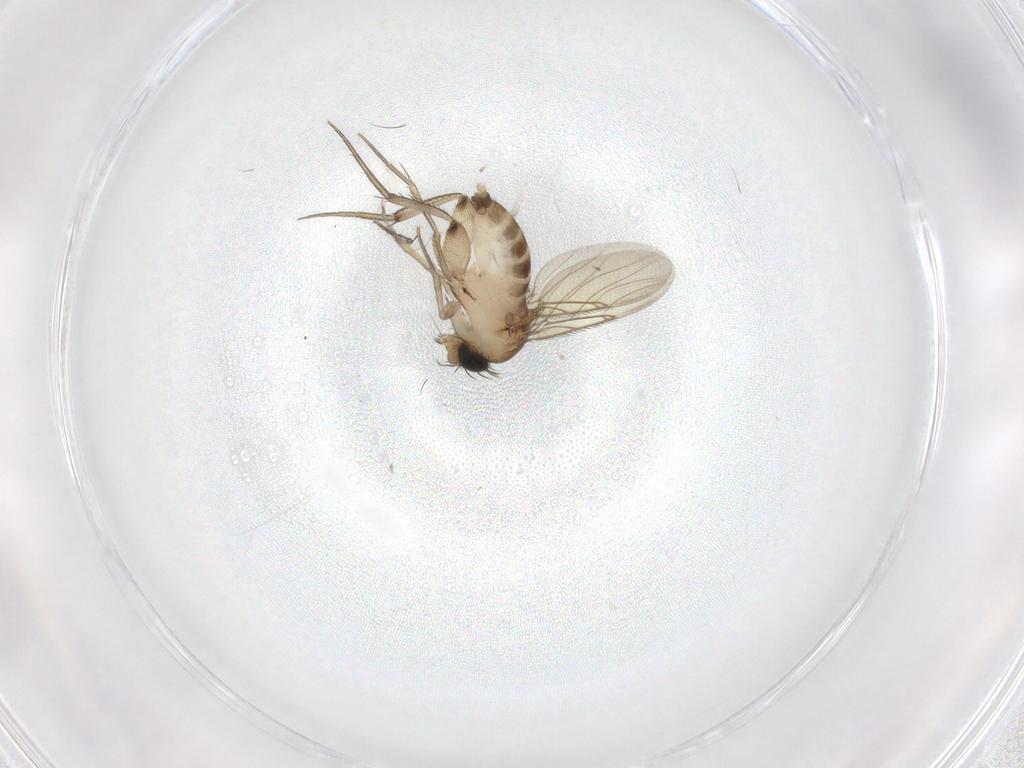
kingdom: Animalia
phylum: Arthropoda
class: Insecta
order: Diptera
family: Phoridae
